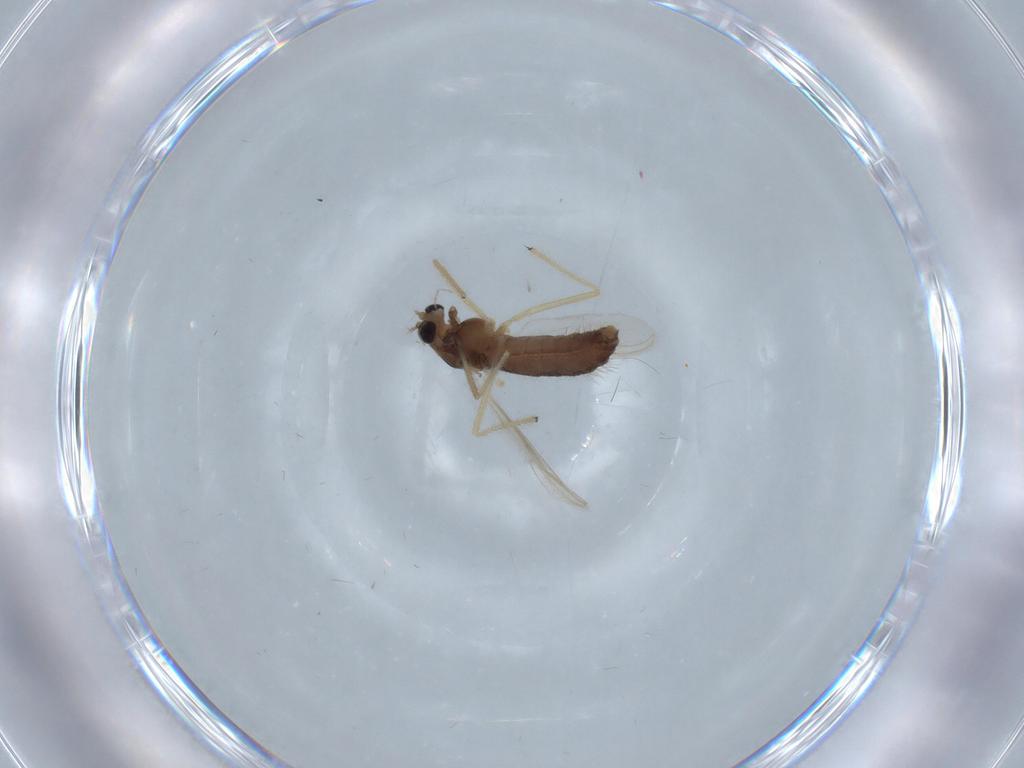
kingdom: Animalia
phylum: Arthropoda
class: Insecta
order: Diptera
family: Chironomidae
